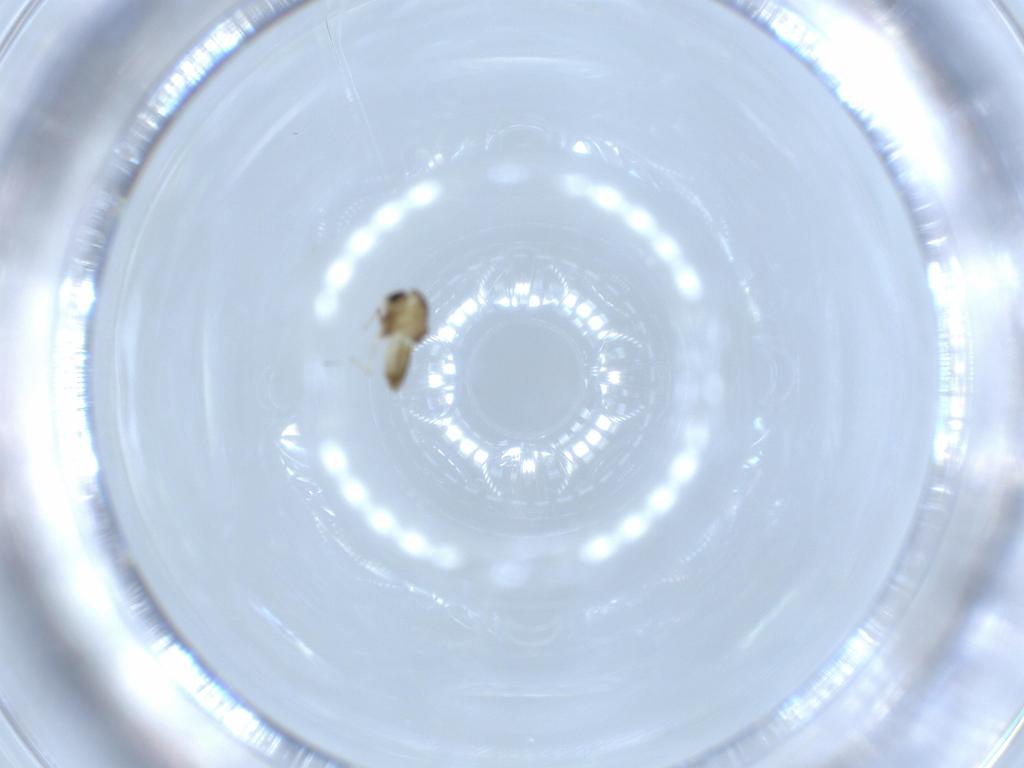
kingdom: Animalia
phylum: Arthropoda
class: Insecta
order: Diptera
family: Chironomidae
